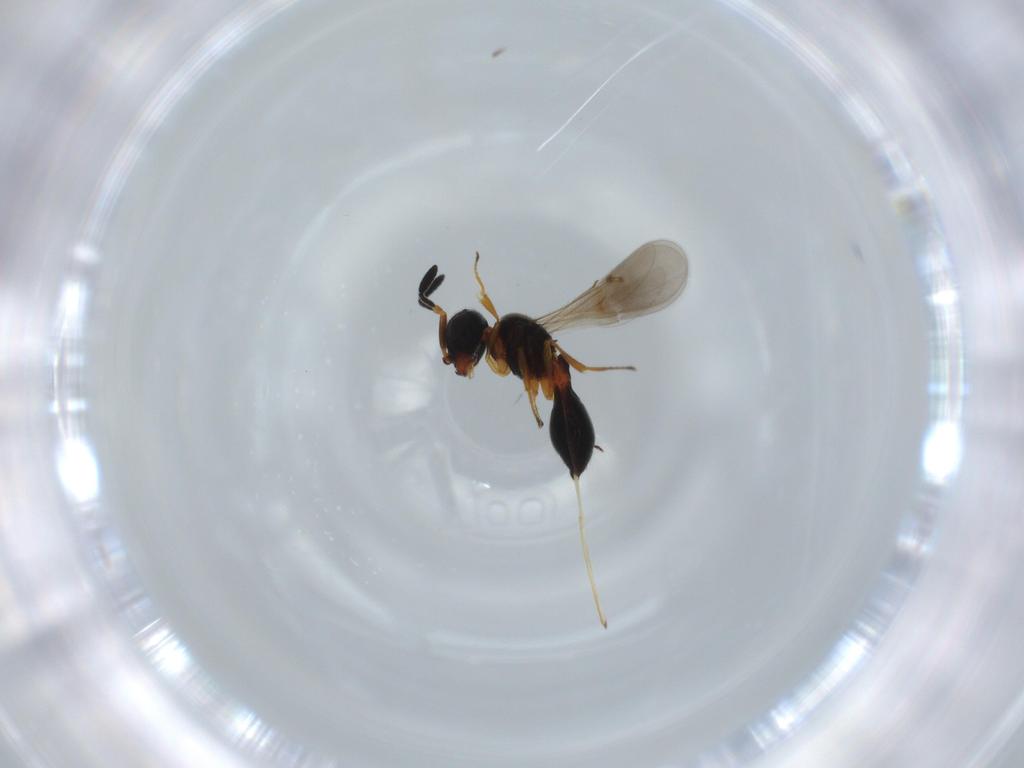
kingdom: Animalia
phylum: Arthropoda
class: Insecta
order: Hymenoptera
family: Scelionidae
